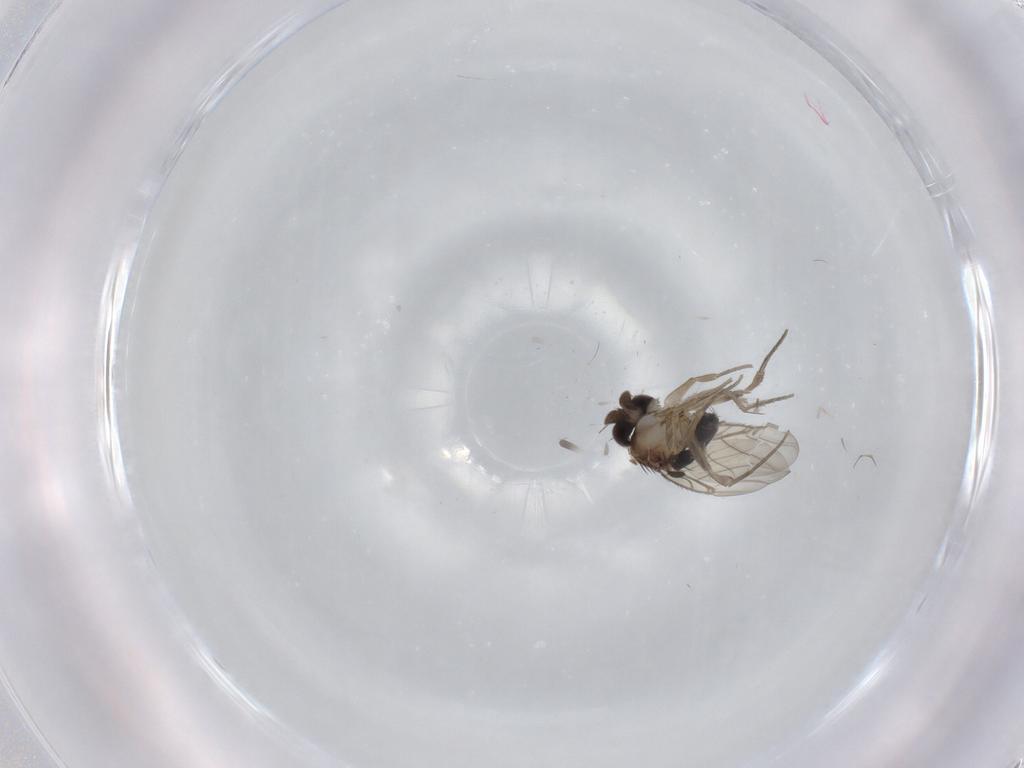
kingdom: Animalia
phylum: Arthropoda
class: Insecta
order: Diptera
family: Phoridae
